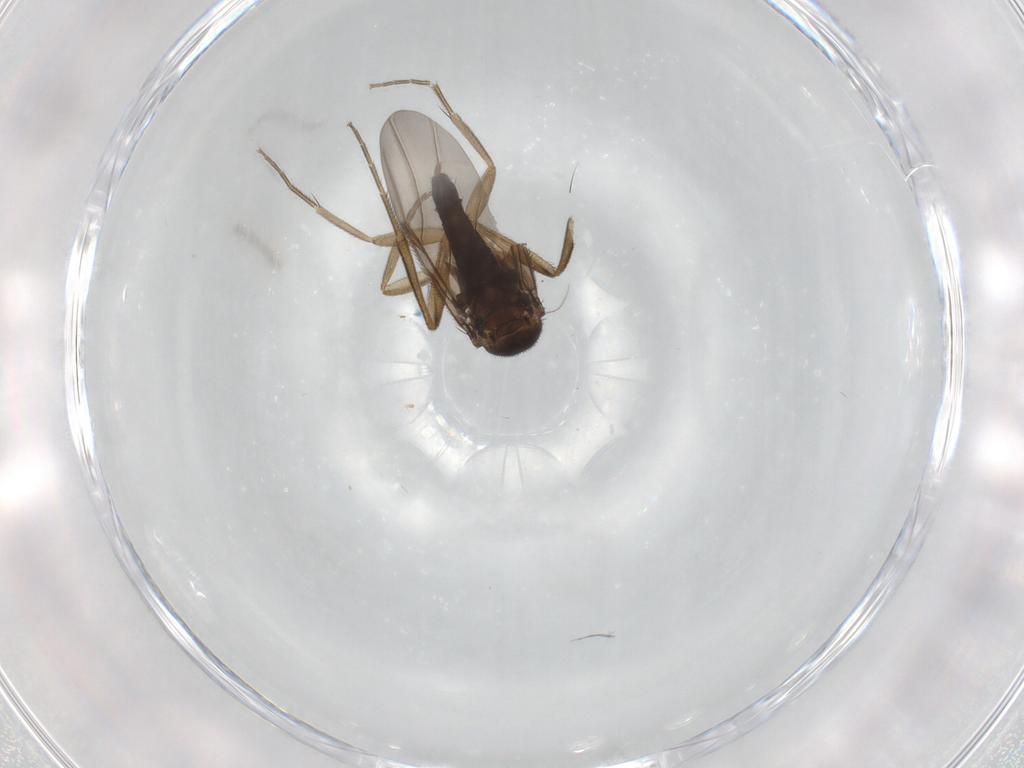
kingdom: Animalia
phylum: Arthropoda
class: Insecta
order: Diptera
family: Phoridae
